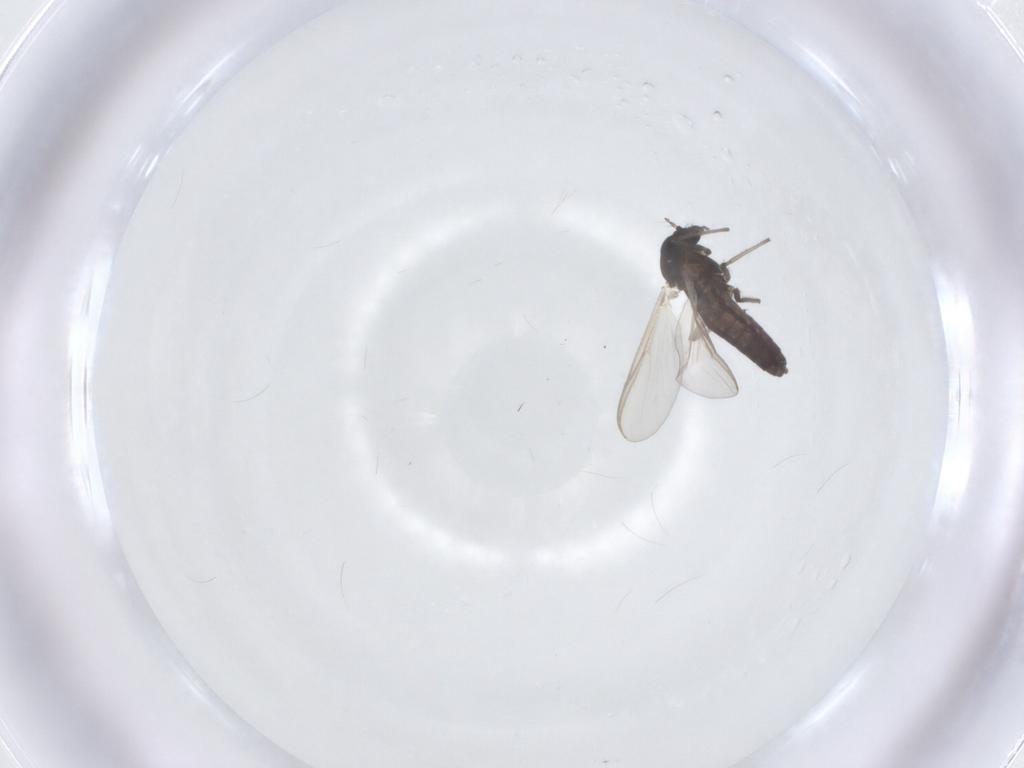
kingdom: Animalia
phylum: Arthropoda
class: Insecta
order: Diptera
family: Chironomidae
